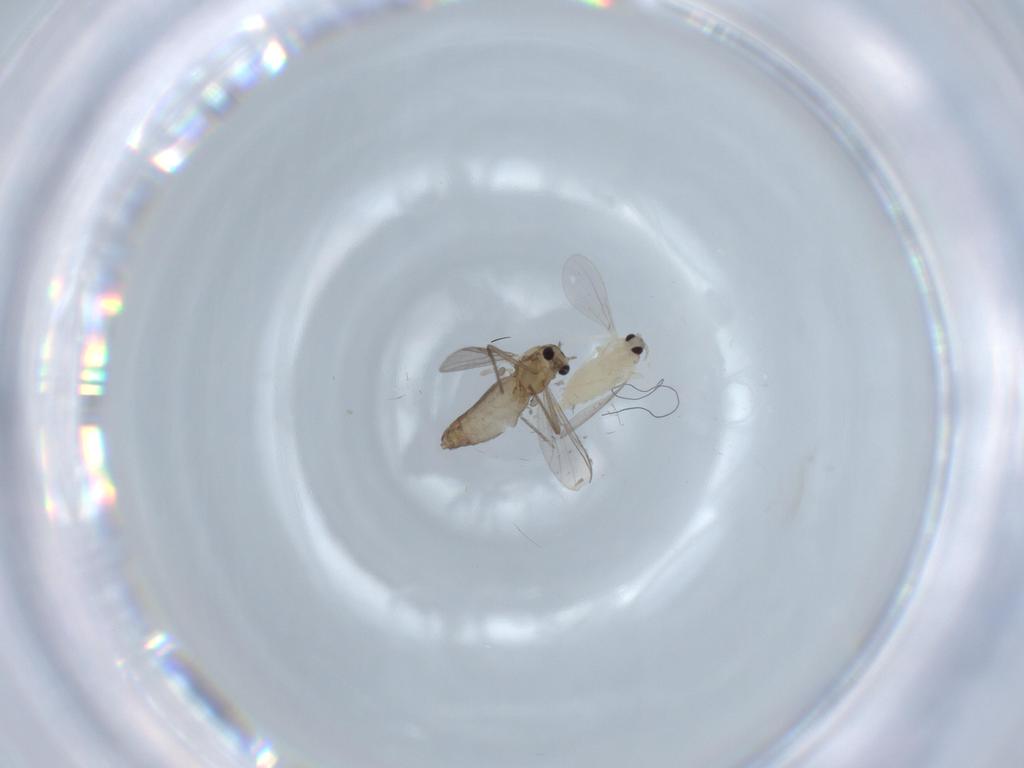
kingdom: Animalia
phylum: Arthropoda
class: Insecta
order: Diptera
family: Chironomidae
